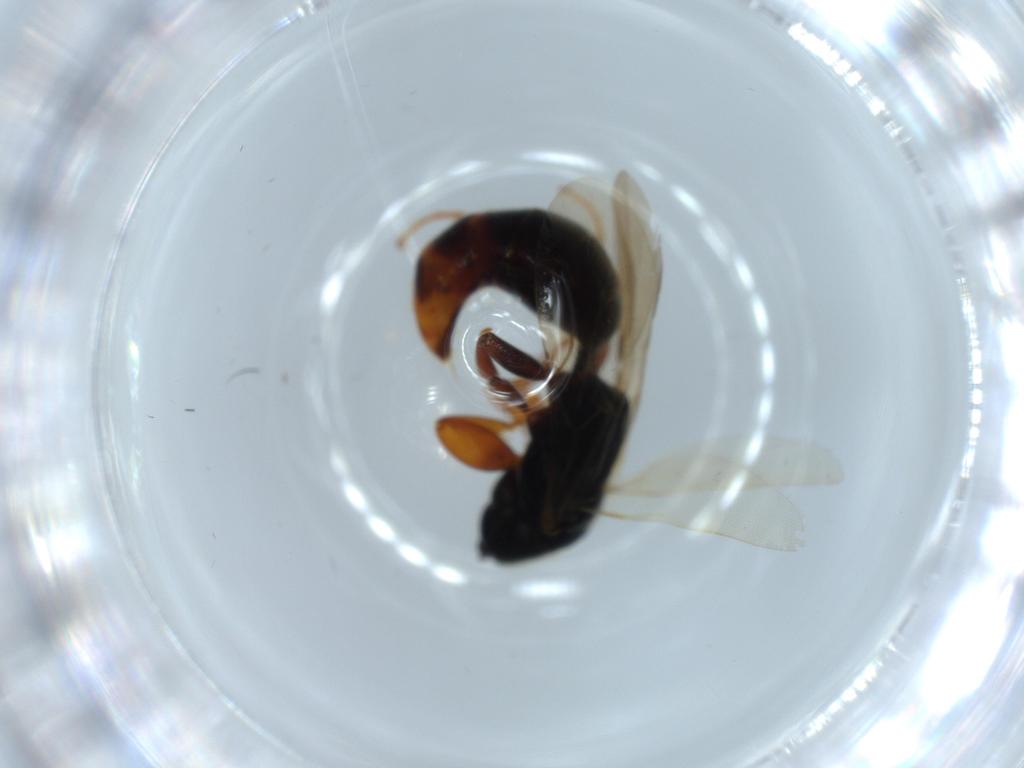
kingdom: Animalia
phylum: Arthropoda
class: Insecta
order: Hymenoptera
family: Bethylidae
